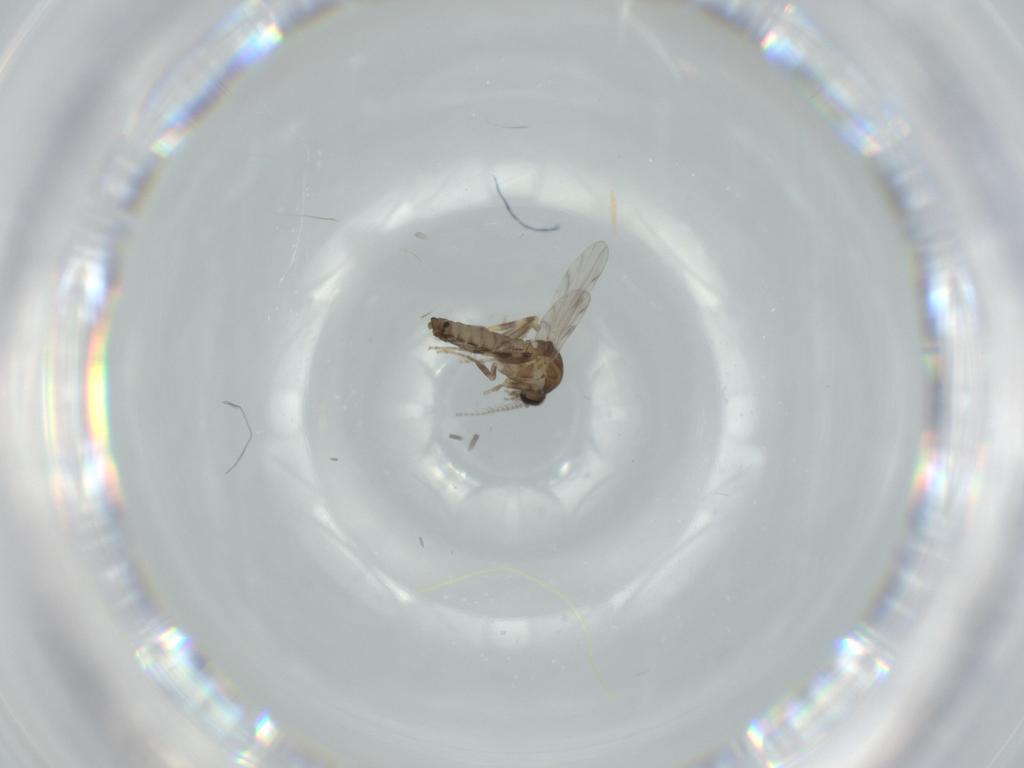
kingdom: Animalia
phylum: Arthropoda
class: Insecta
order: Diptera
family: Ceratopogonidae
